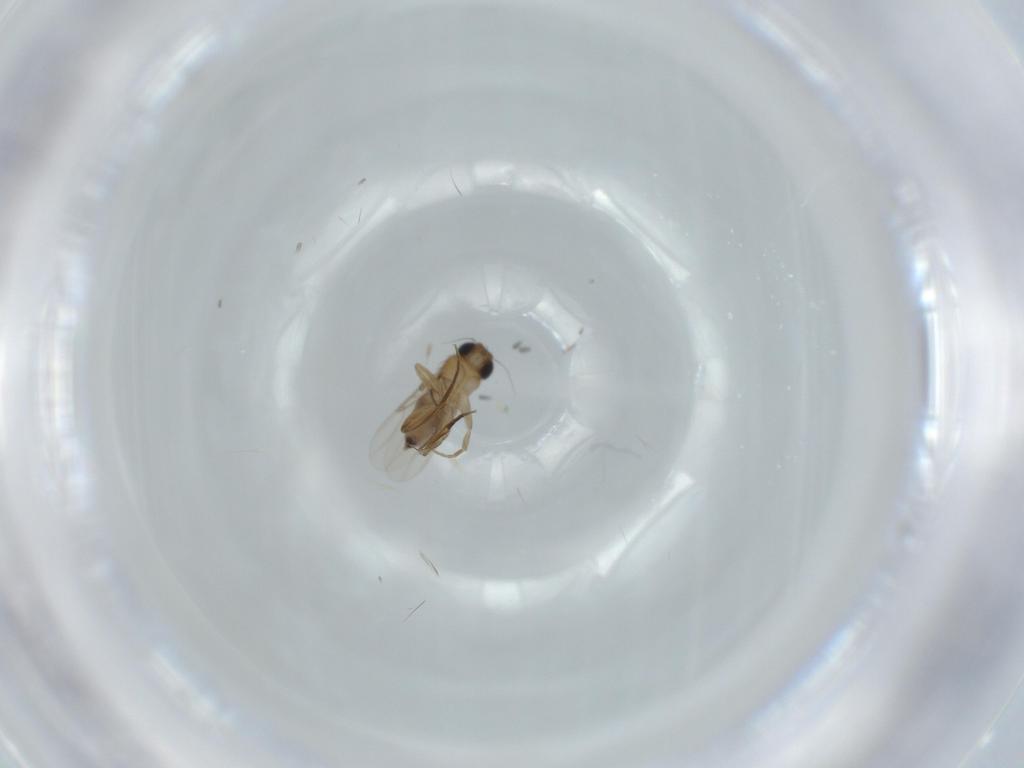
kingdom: Animalia
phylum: Arthropoda
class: Insecta
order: Diptera
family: Phoridae
